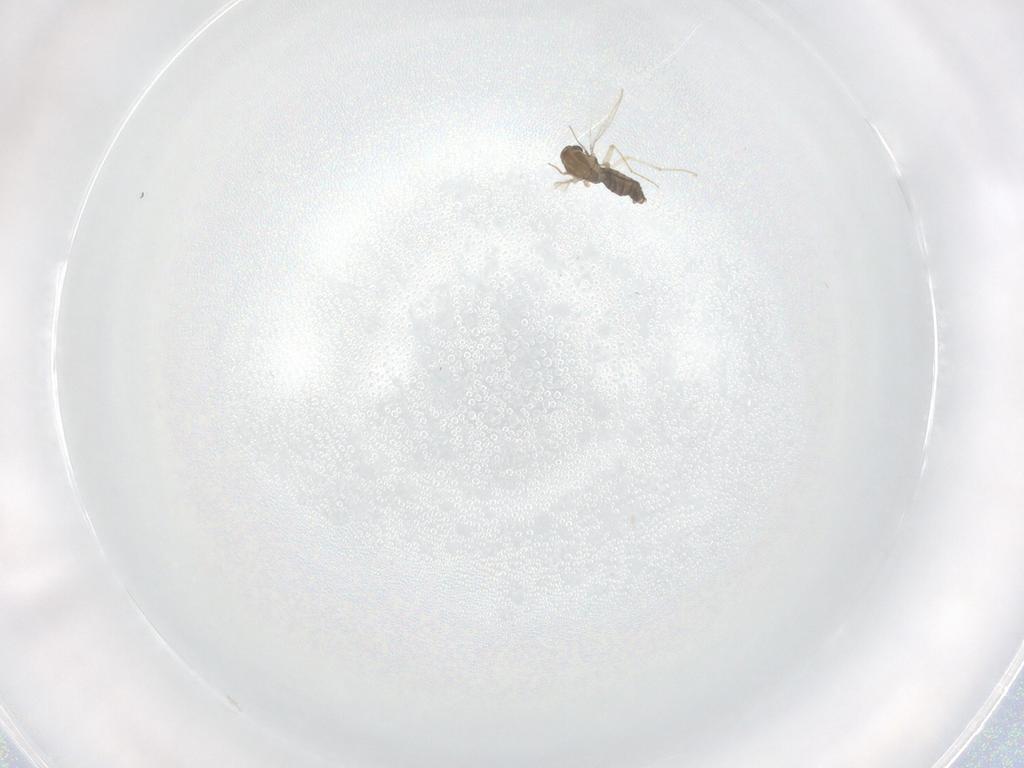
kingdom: Animalia
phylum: Arthropoda
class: Insecta
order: Diptera
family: Chironomidae
